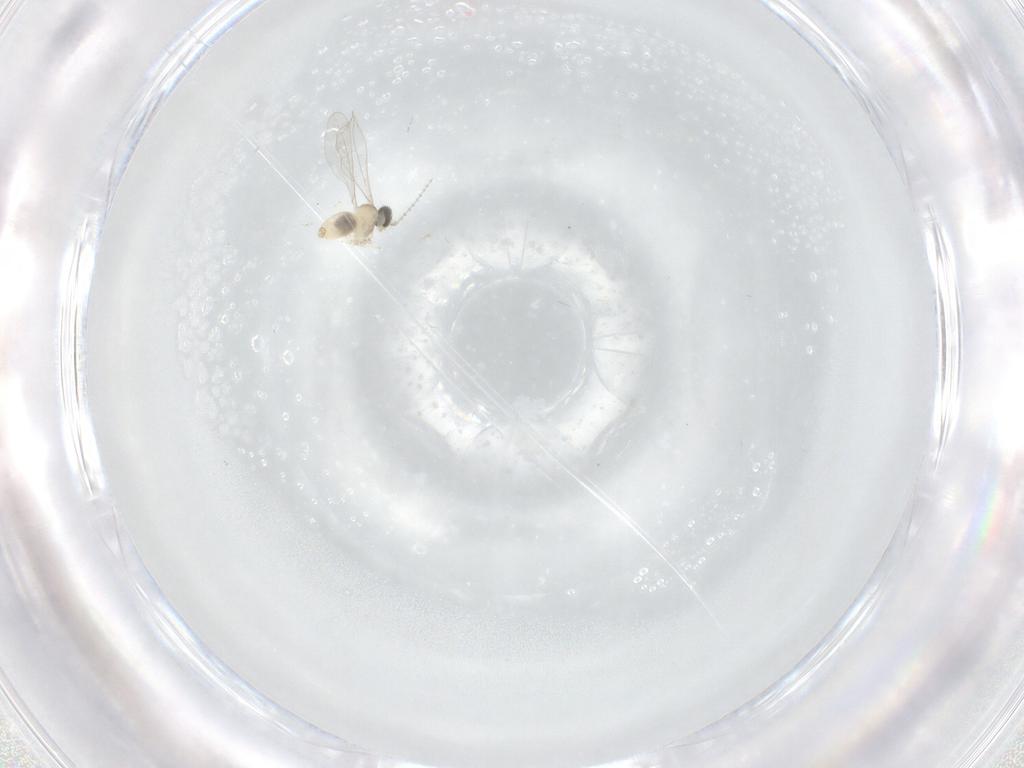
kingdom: Animalia
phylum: Arthropoda
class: Insecta
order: Diptera
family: Cecidomyiidae
